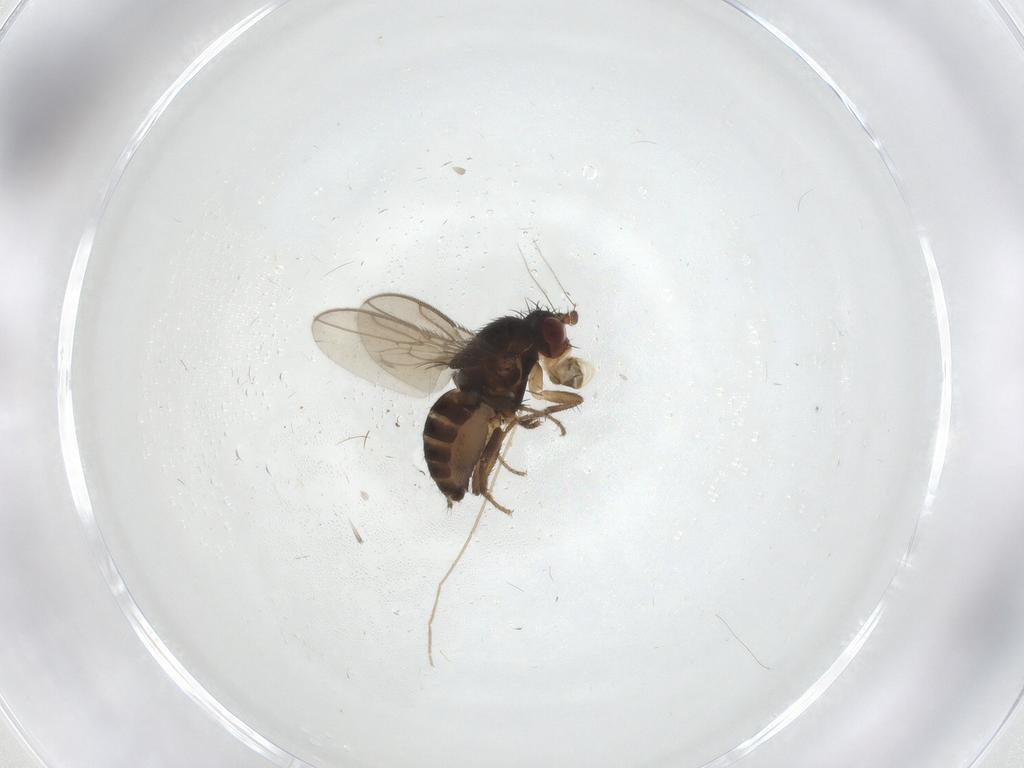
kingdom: Animalia
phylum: Arthropoda
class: Insecta
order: Diptera
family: Chironomidae
